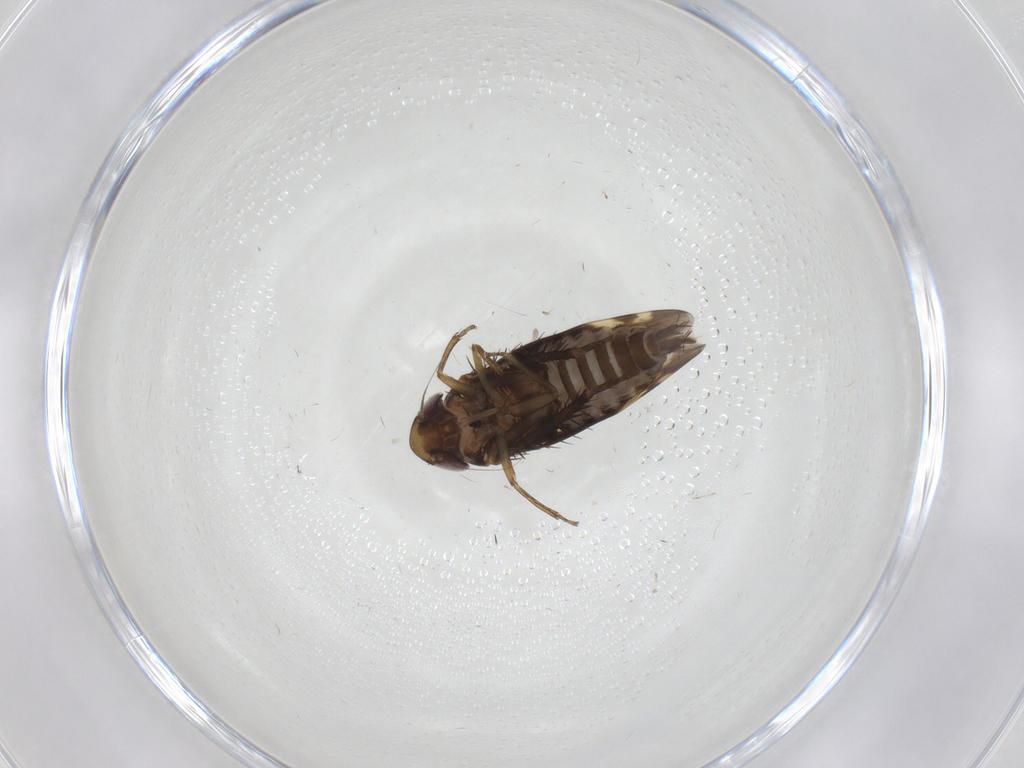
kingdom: Animalia
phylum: Arthropoda
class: Insecta
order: Hemiptera
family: Cicadellidae
